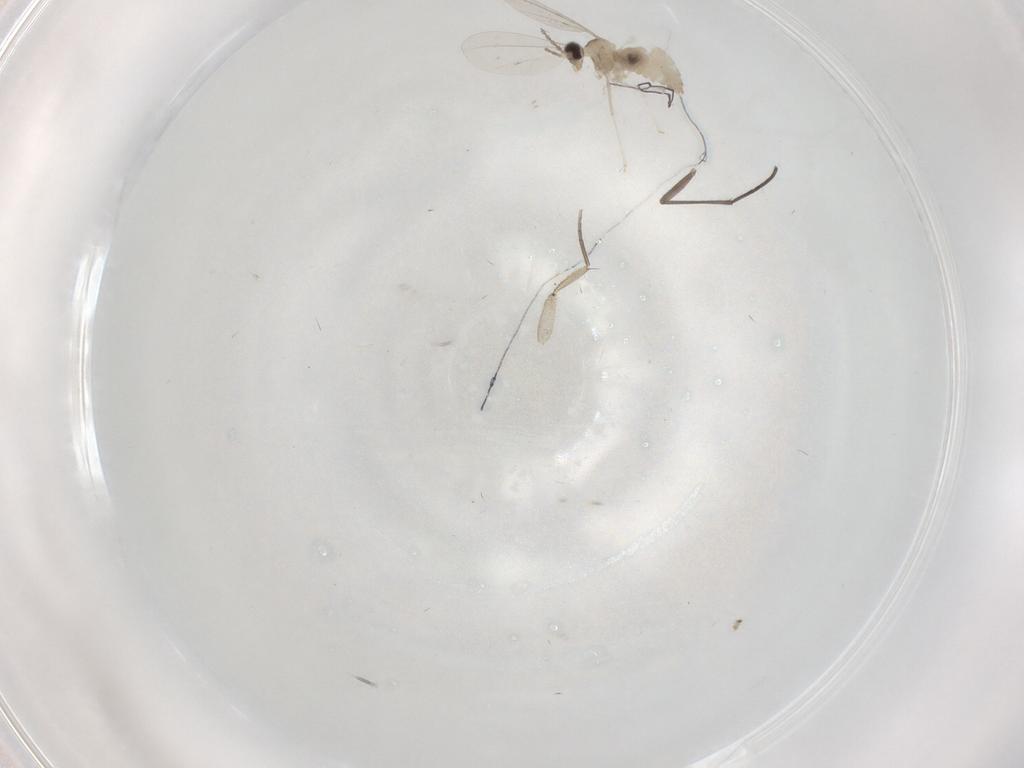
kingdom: Animalia
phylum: Arthropoda
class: Insecta
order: Diptera
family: Cecidomyiidae
